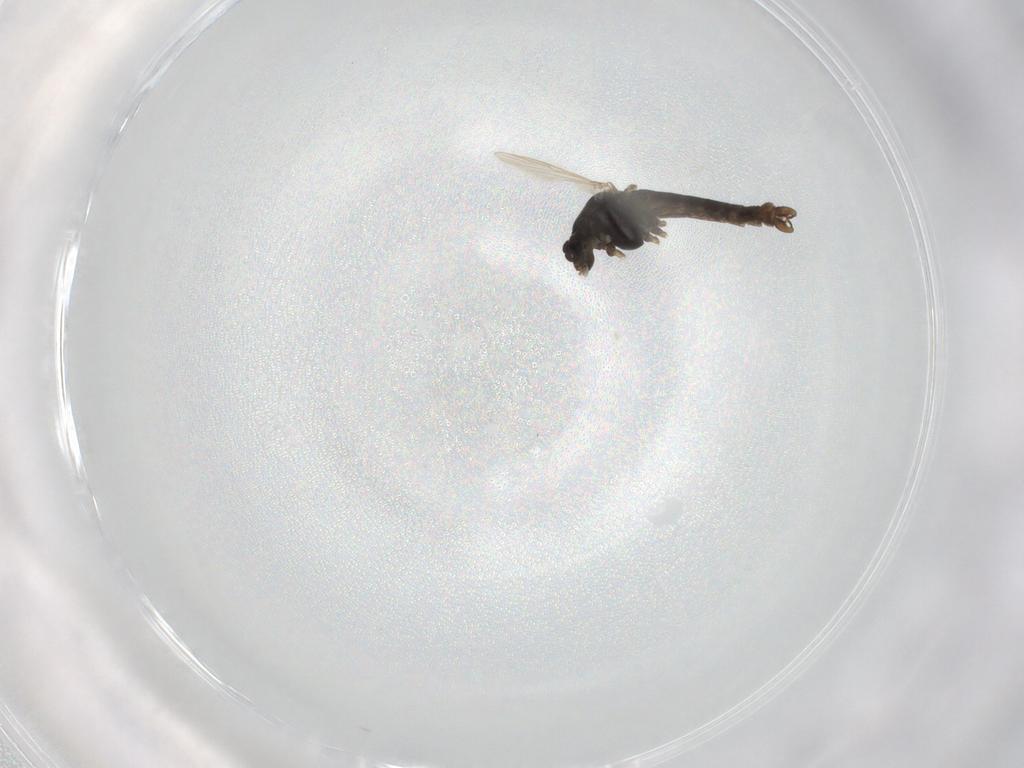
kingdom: Animalia
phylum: Arthropoda
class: Insecta
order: Diptera
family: Chironomidae
